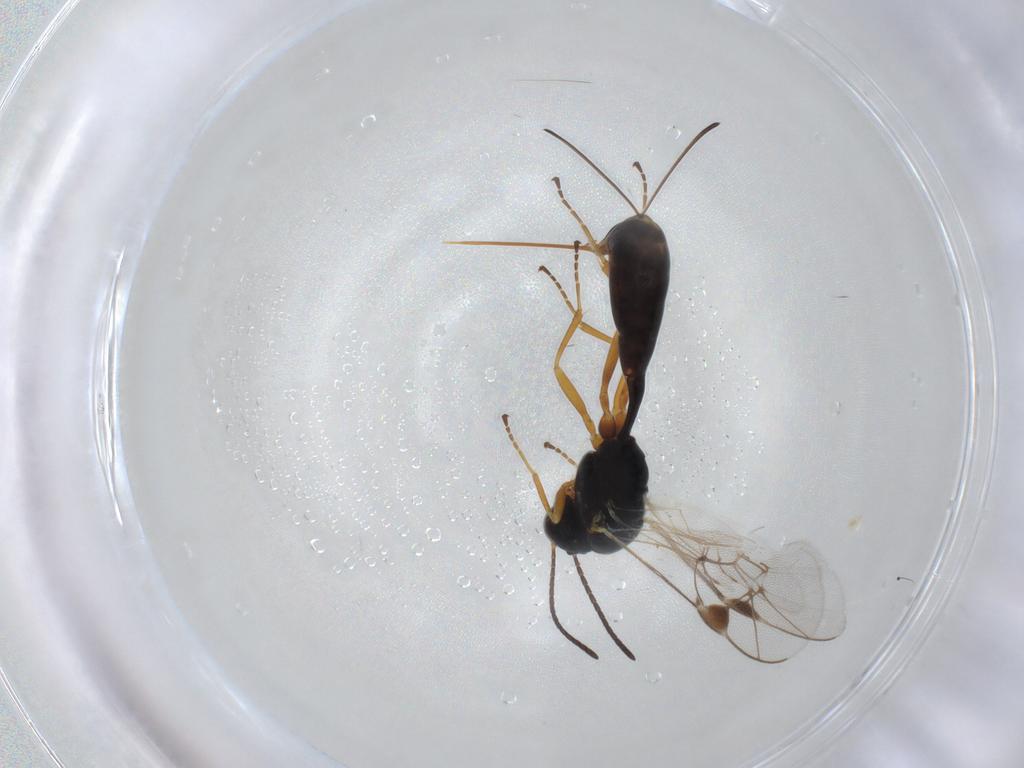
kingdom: Animalia
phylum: Arthropoda
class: Insecta
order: Hymenoptera
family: Ichneumonidae
